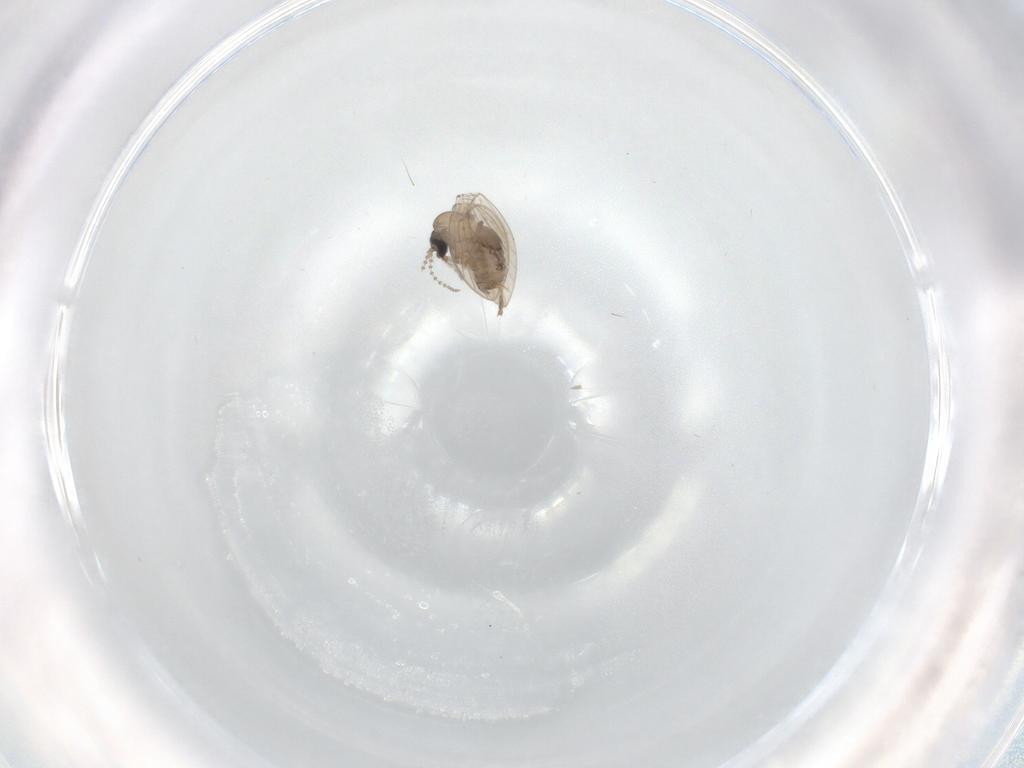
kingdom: Animalia
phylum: Arthropoda
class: Insecta
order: Diptera
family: Psychodidae
